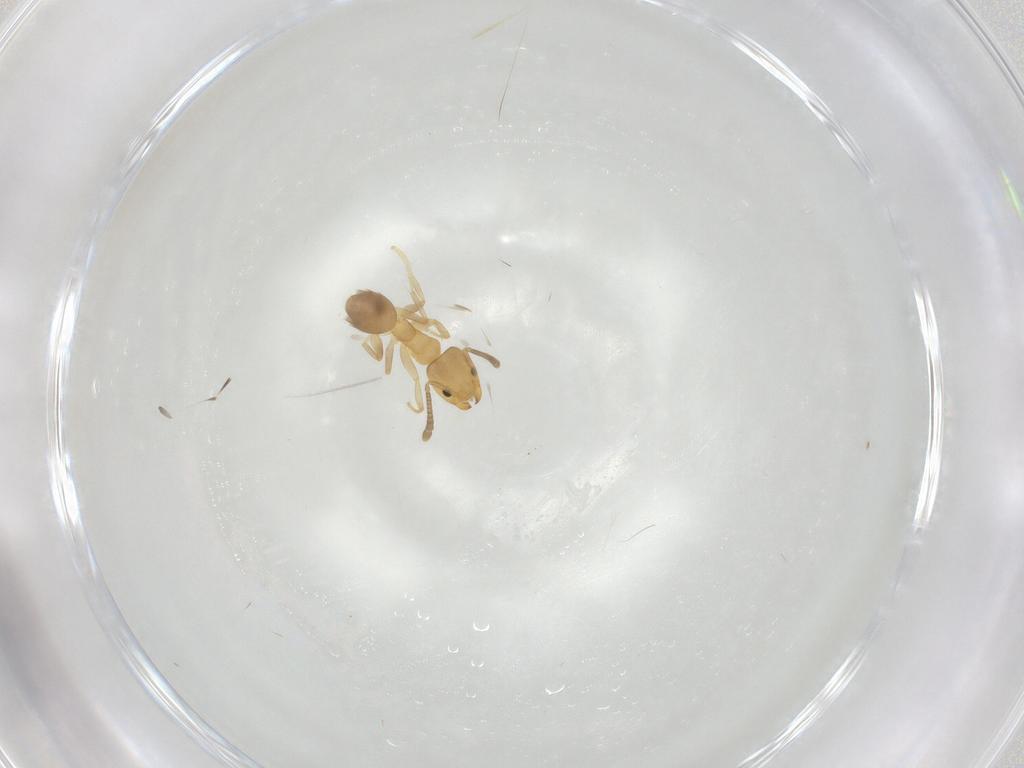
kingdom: Animalia
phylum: Arthropoda
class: Insecta
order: Hymenoptera
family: Formicidae
